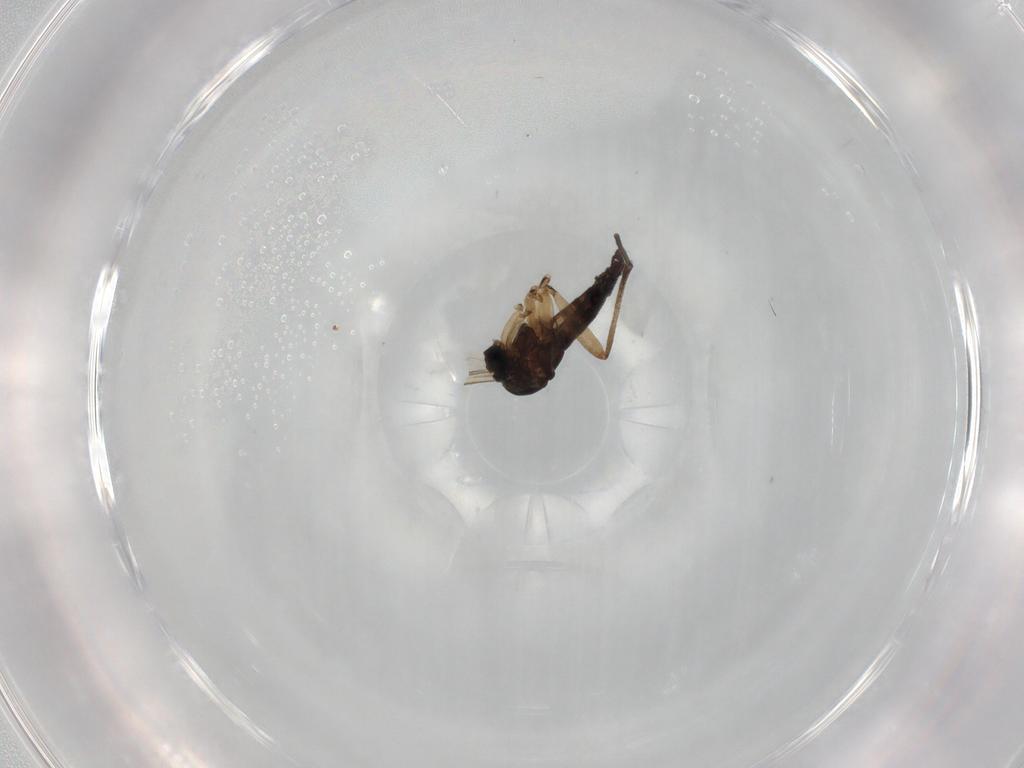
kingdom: Animalia
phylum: Arthropoda
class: Insecta
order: Diptera
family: Sciaridae
